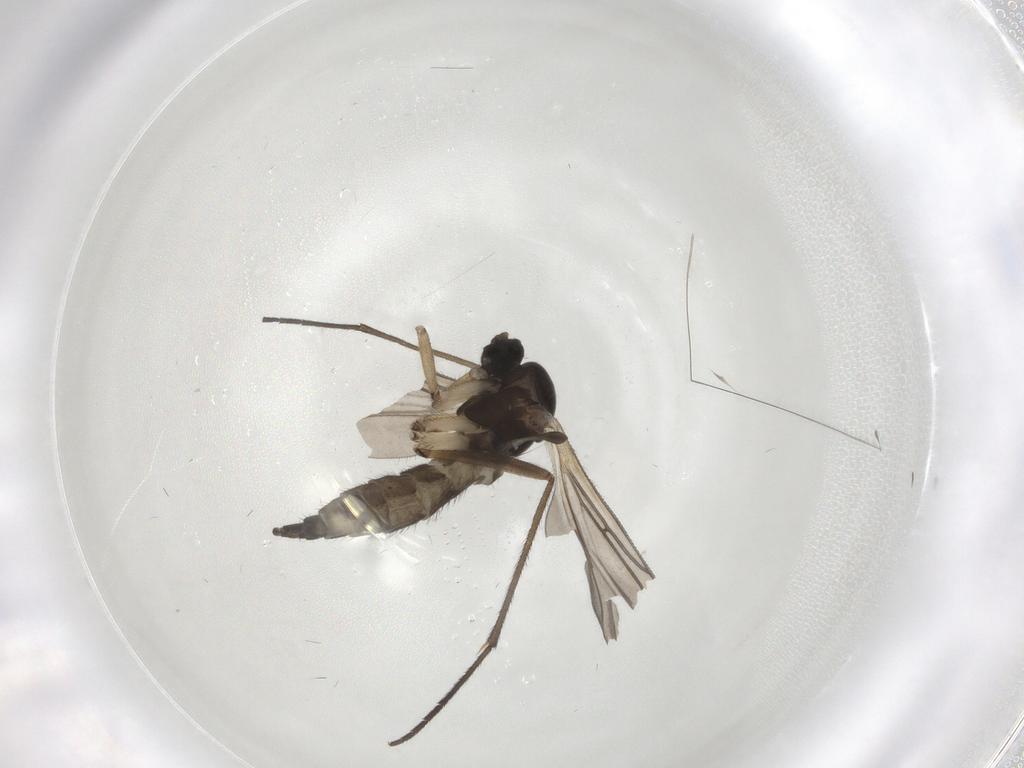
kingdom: Animalia
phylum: Arthropoda
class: Insecta
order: Diptera
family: Sciaridae
